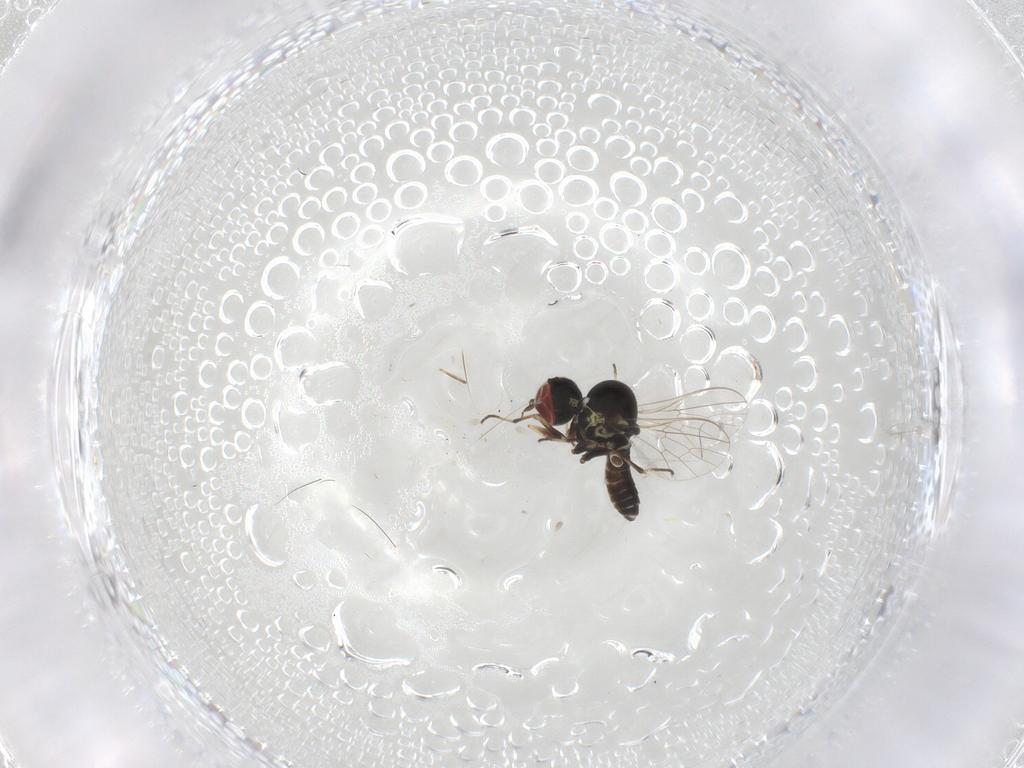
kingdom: Animalia
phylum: Arthropoda
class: Insecta
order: Diptera
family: Bombyliidae
